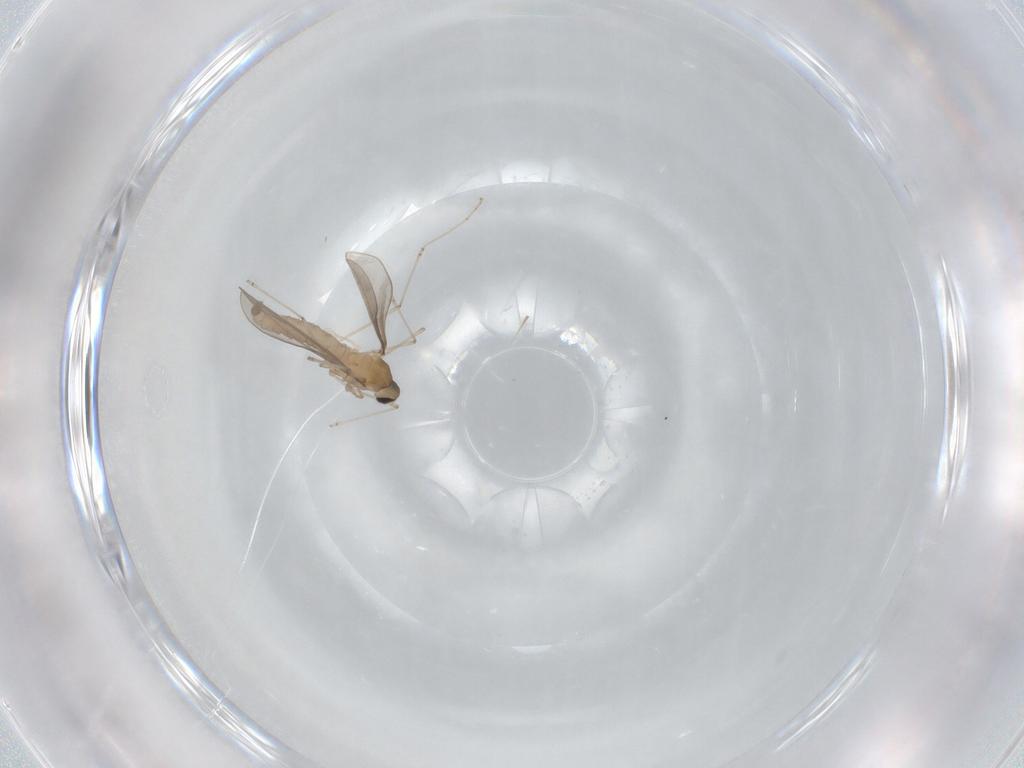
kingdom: Animalia
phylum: Arthropoda
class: Insecta
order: Diptera
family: Cecidomyiidae
